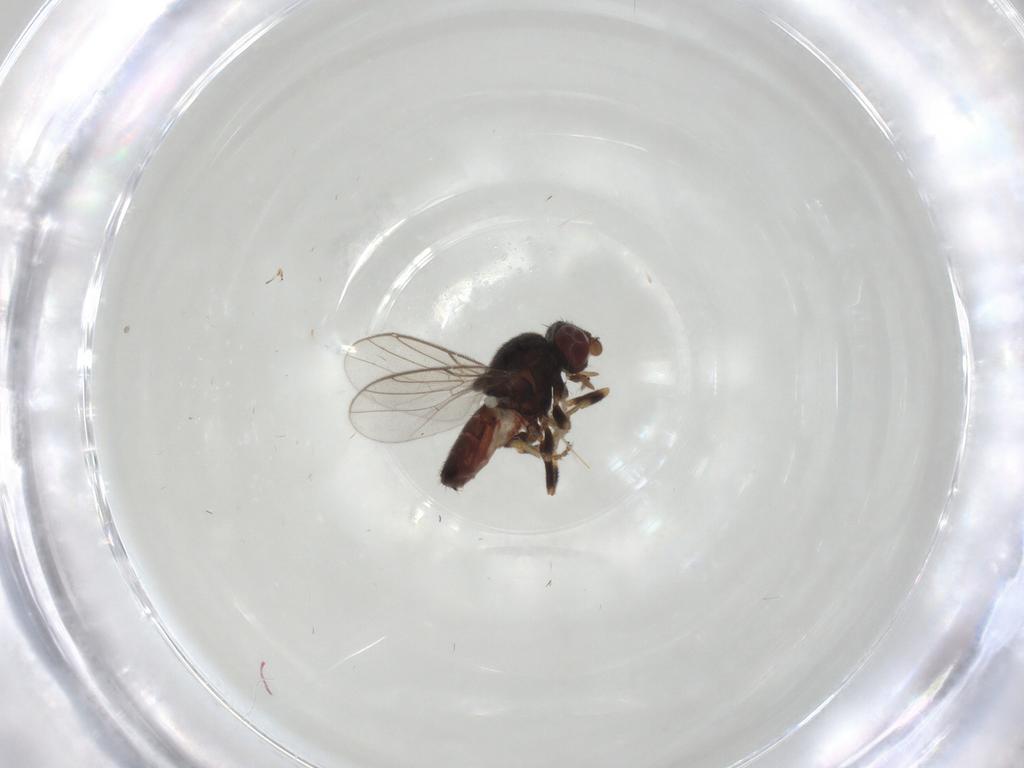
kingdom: Animalia
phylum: Arthropoda
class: Insecta
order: Diptera
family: Chloropidae
